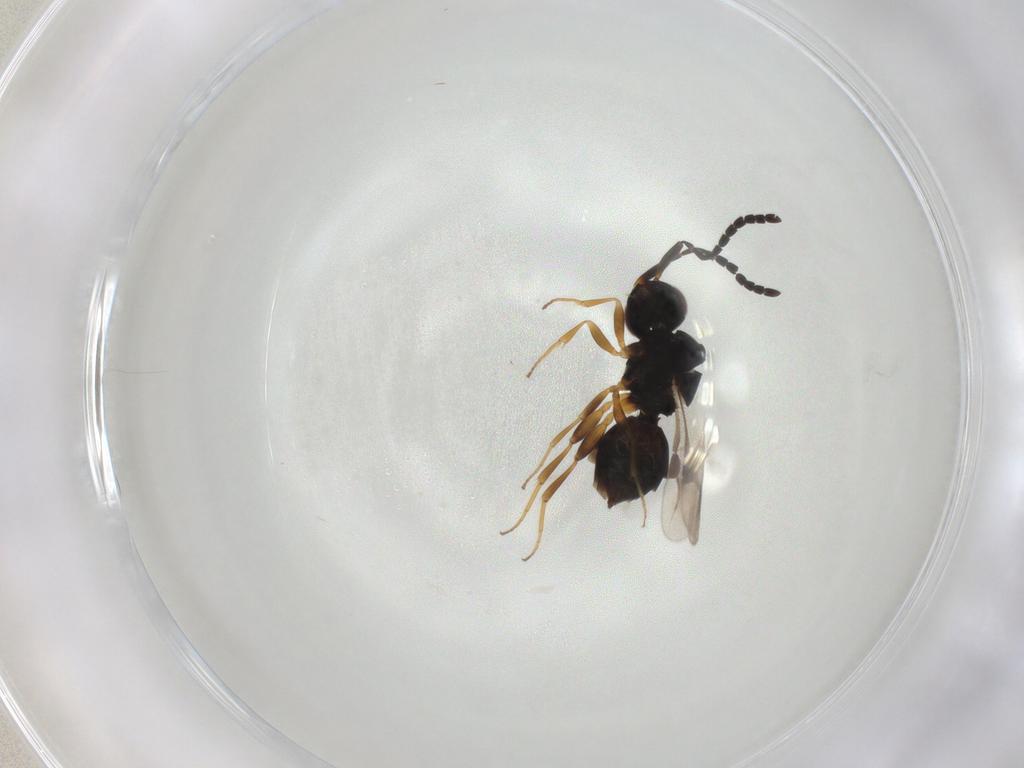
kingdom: Animalia
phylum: Arthropoda
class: Insecta
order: Hymenoptera
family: Megaspilidae
